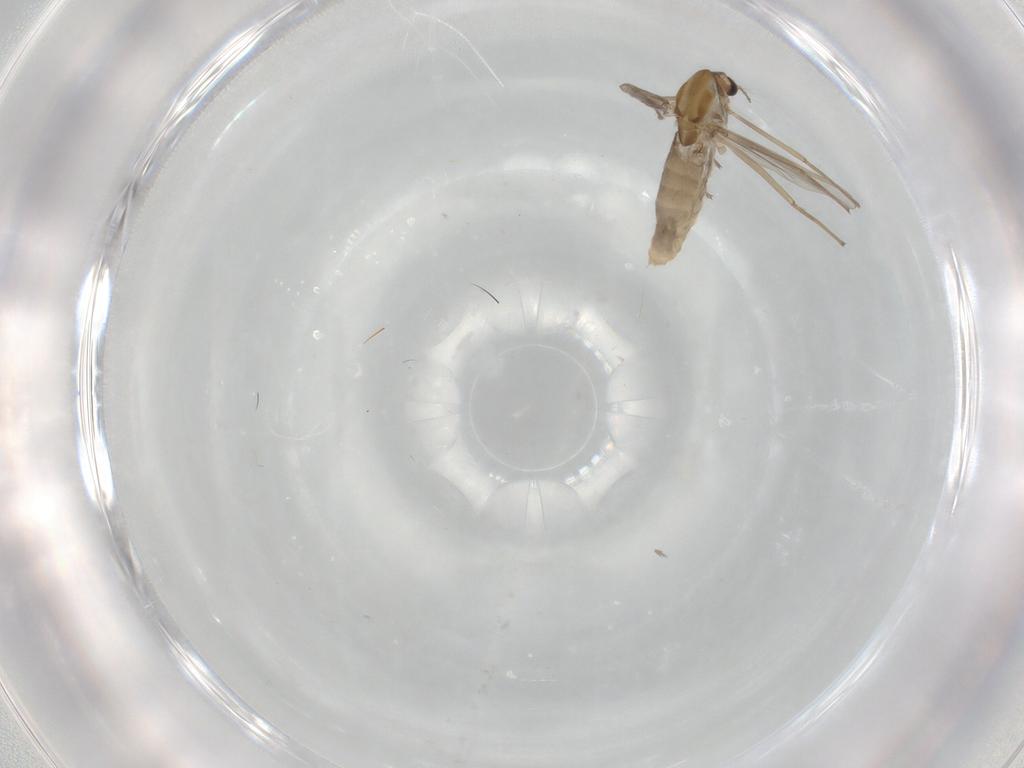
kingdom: Animalia
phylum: Arthropoda
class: Insecta
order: Diptera
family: Chironomidae
